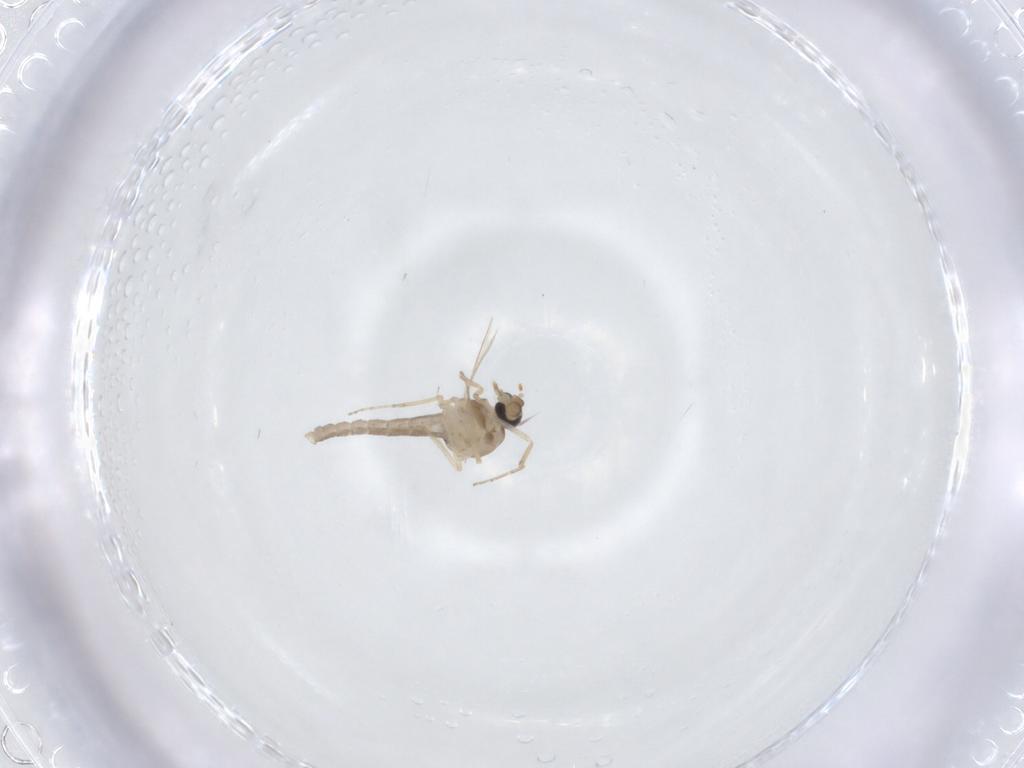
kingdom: Animalia
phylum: Arthropoda
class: Insecta
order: Diptera
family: Ceratopogonidae
